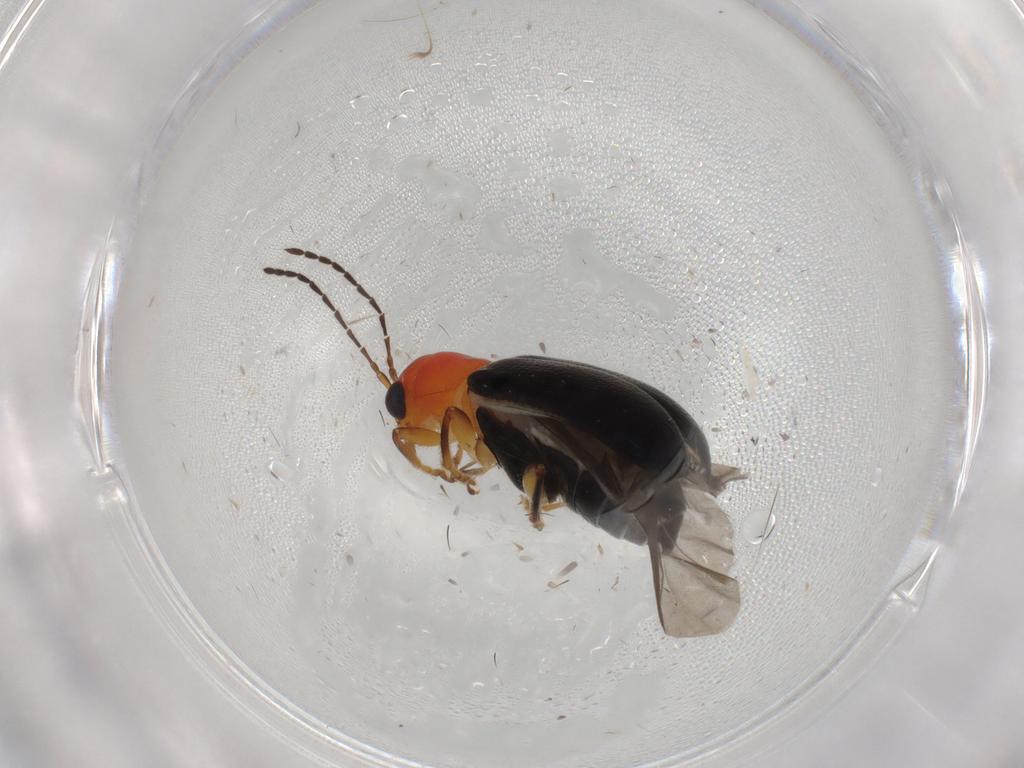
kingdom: Animalia
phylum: Arthropoda
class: Insecta
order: Coleoptera
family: Chrysomelidae
